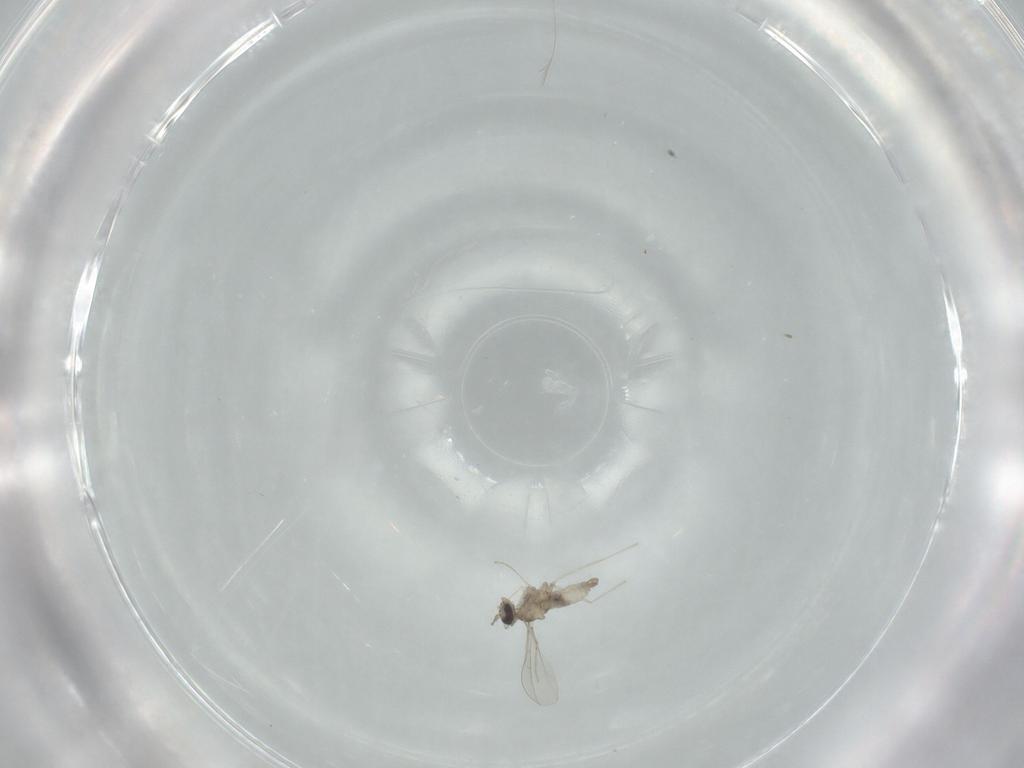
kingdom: Animalia
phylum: Arthropoda
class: Insecta
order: Diptera
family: Cecidomyiidae
